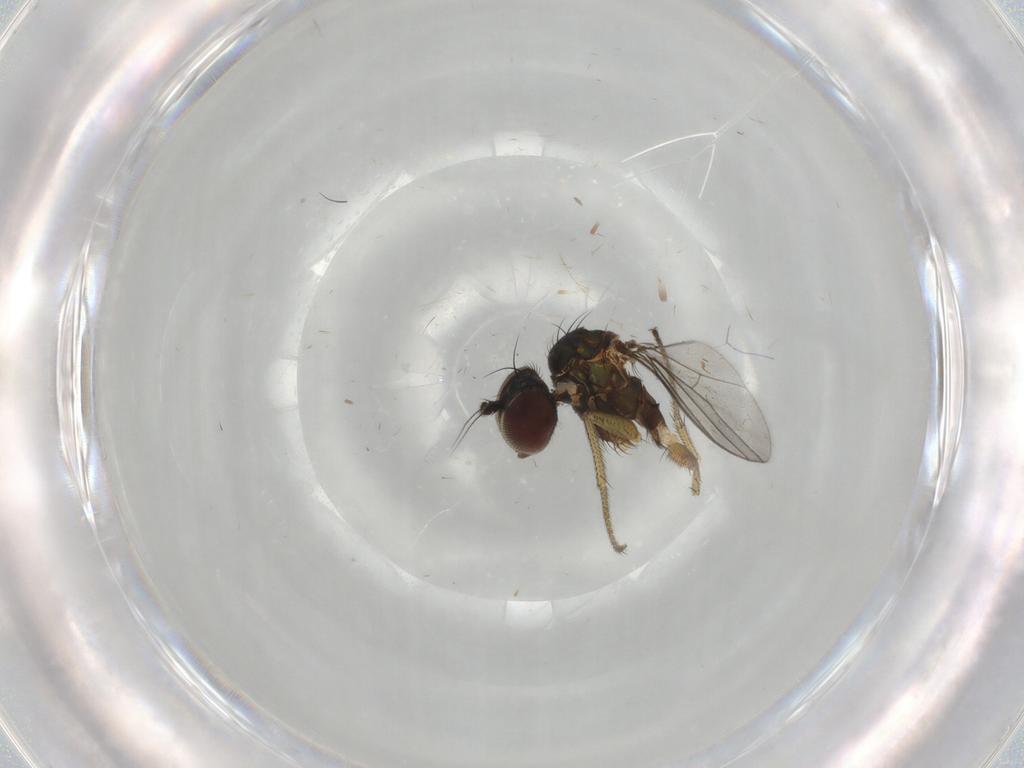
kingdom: Animalia
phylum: Arthropoda
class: Insecta
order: Diptera
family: Dolichopodidae
